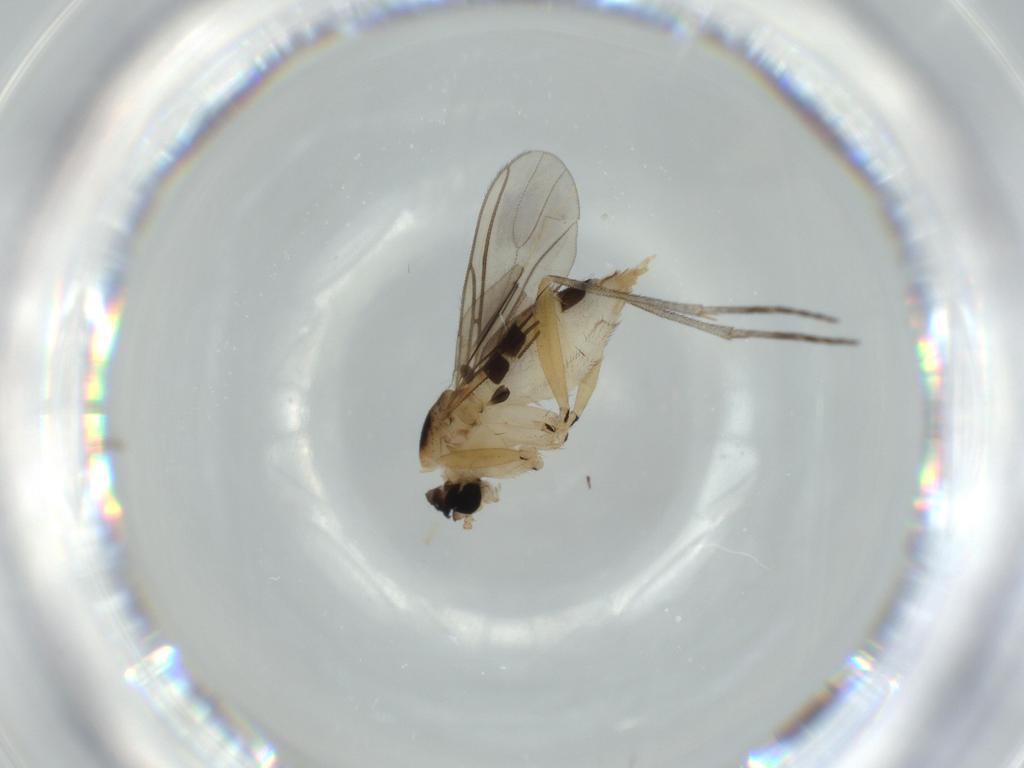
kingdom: Animalia
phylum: Arthropoda
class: Insecta
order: Diptera
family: Sciaridae
